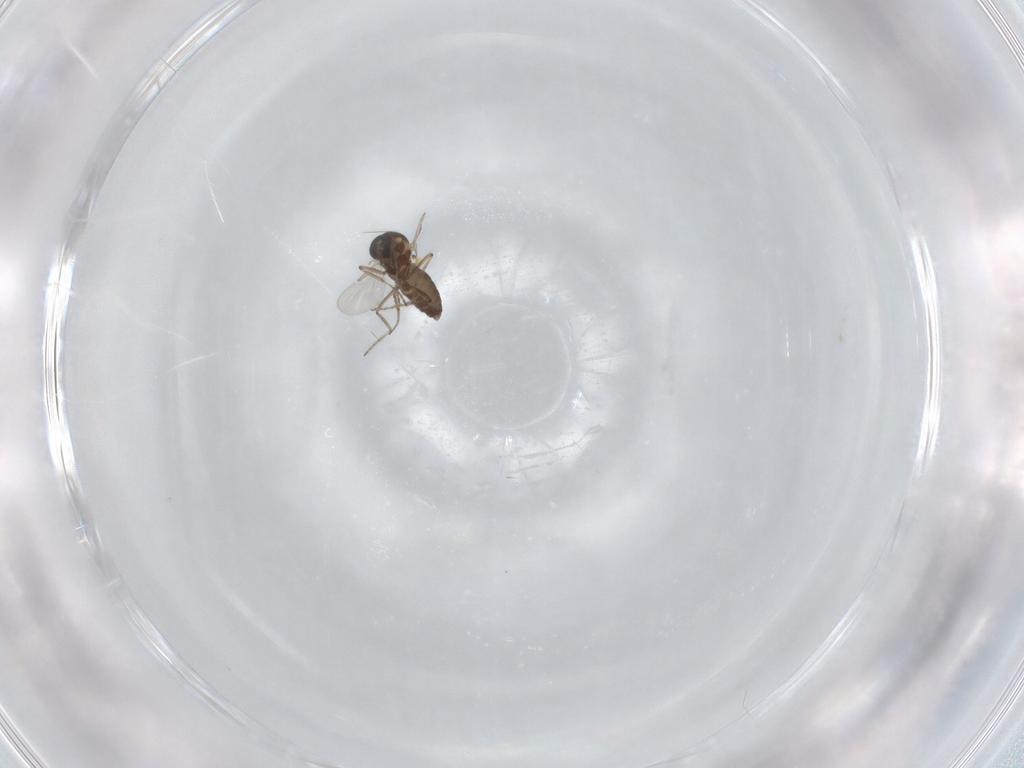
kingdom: Animalia
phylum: Arthropoda
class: Insecta
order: Diptera
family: Ceratopogonidae
